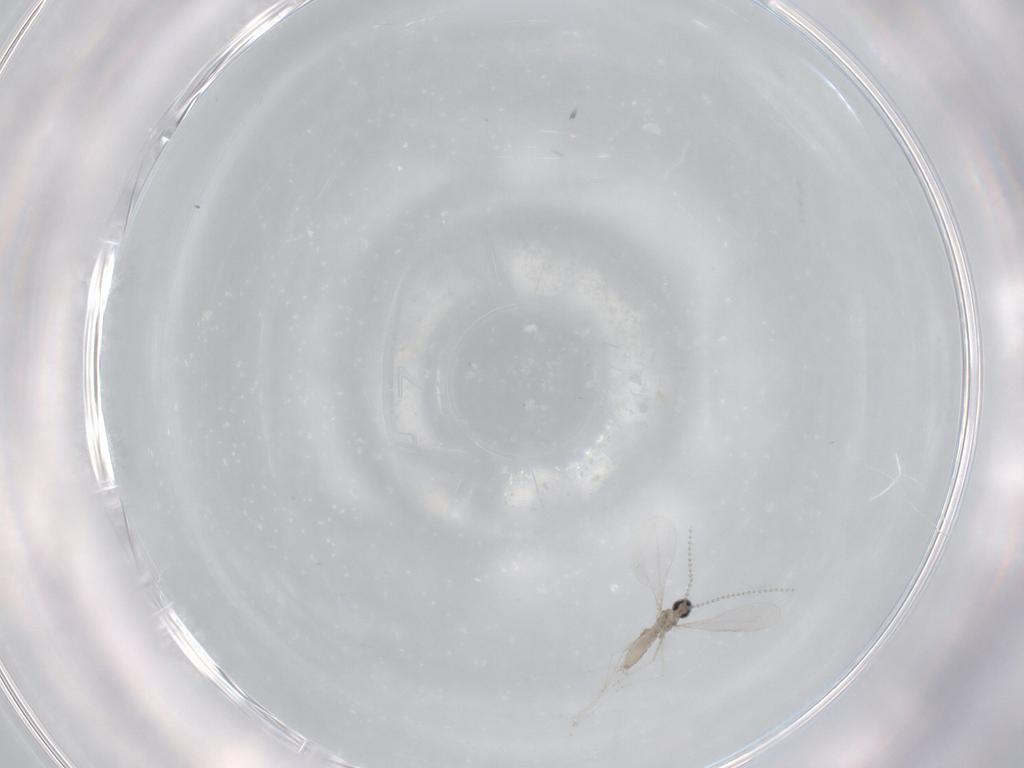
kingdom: Animalia
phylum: Arthropoda
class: Insecta
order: Diptera
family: Cecidomyiidae
